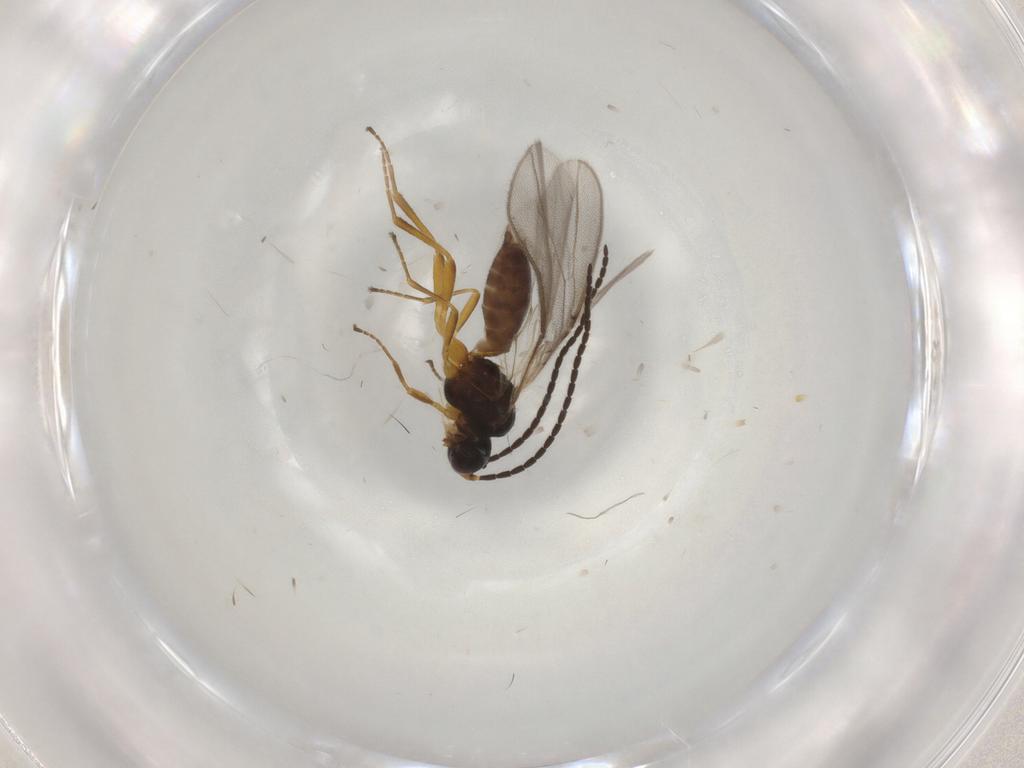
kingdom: Animalia
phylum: Arthropoda
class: Insecta
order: Hymenoptera
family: Braconidae
